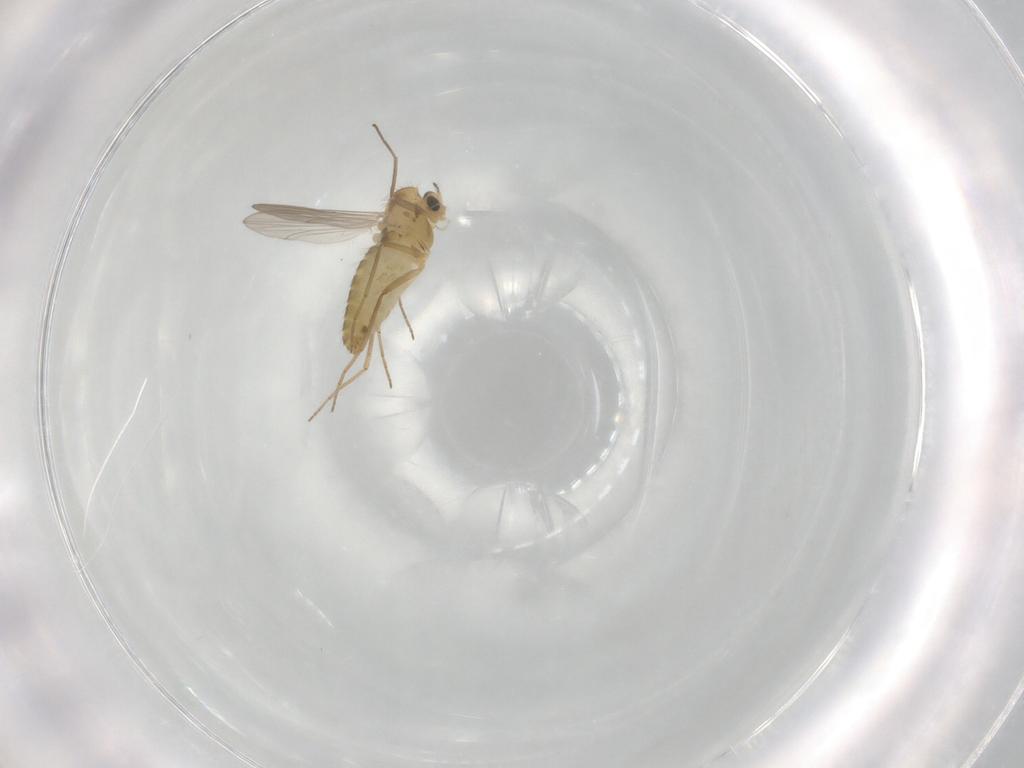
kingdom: Animalia
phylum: Arthropoda
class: Insecta
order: Diptera
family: Chironomidae
